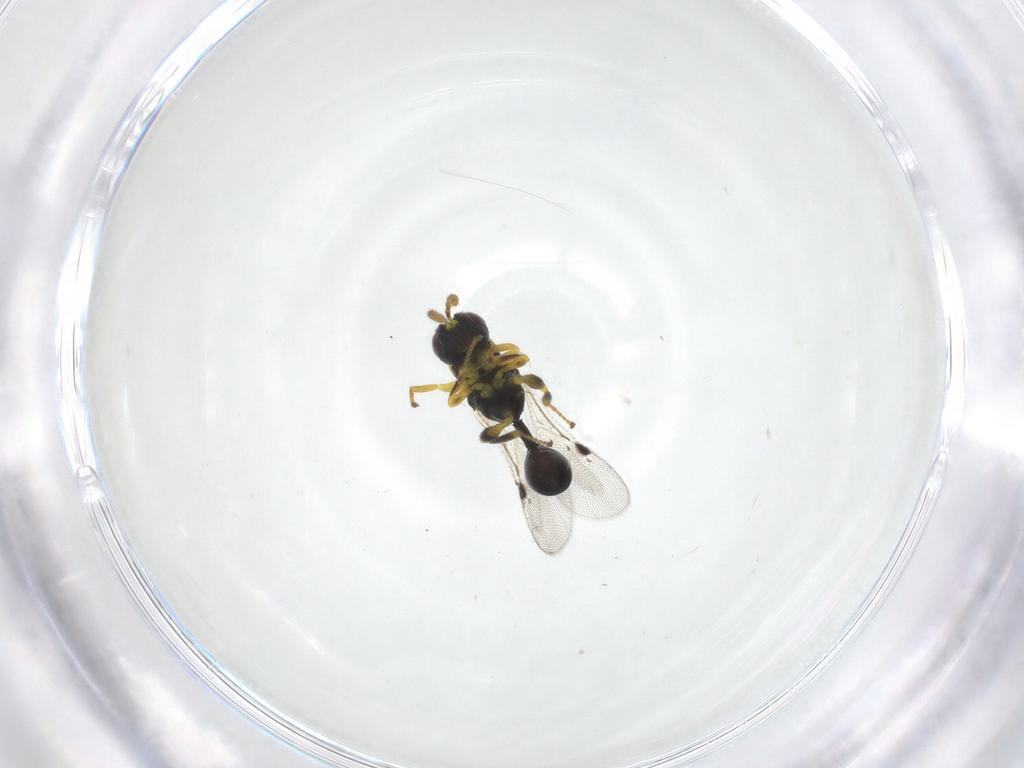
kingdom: Animalia
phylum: Arthropoda
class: Insecta
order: Hymenoptera
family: Eurytomidae
